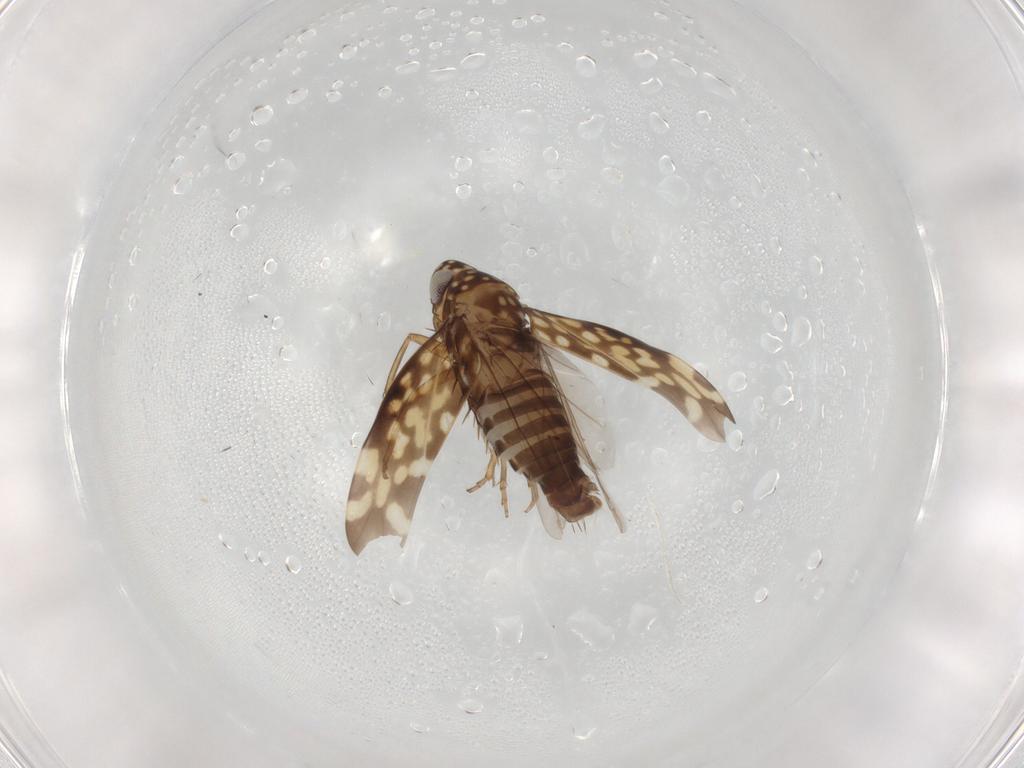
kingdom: Animalia
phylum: Arthropoda
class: Insecta
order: Hemiptera
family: Cicadellidae
